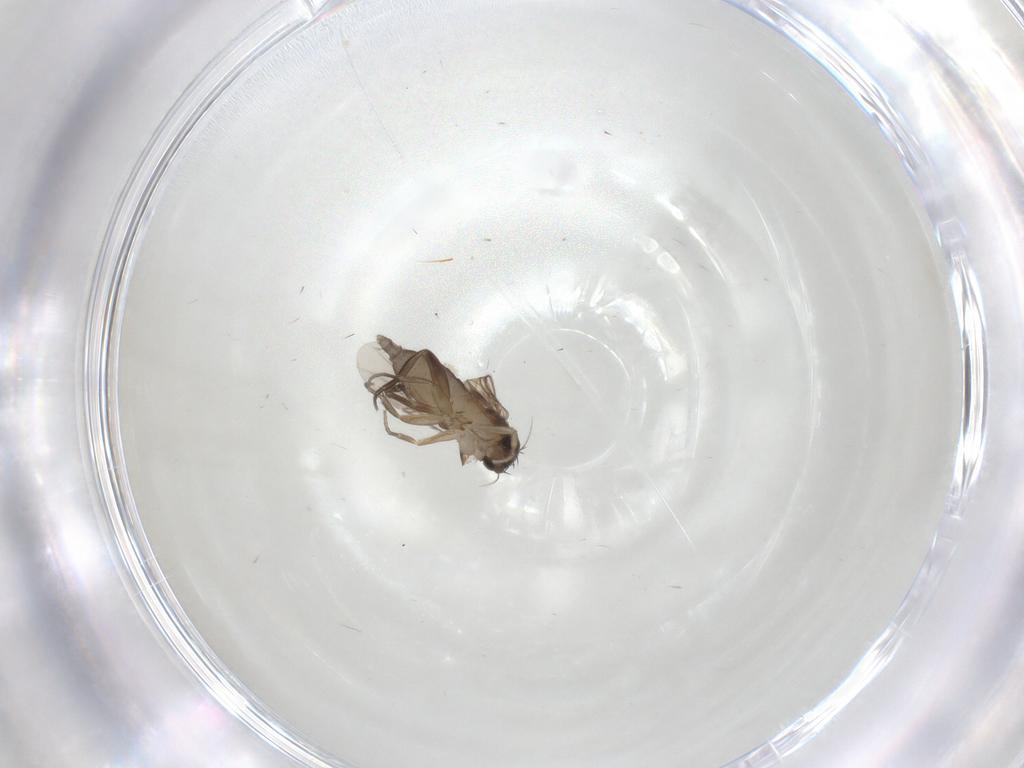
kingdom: Animalia
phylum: Arthropoda
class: Insecta
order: Diptera
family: Phoridae
